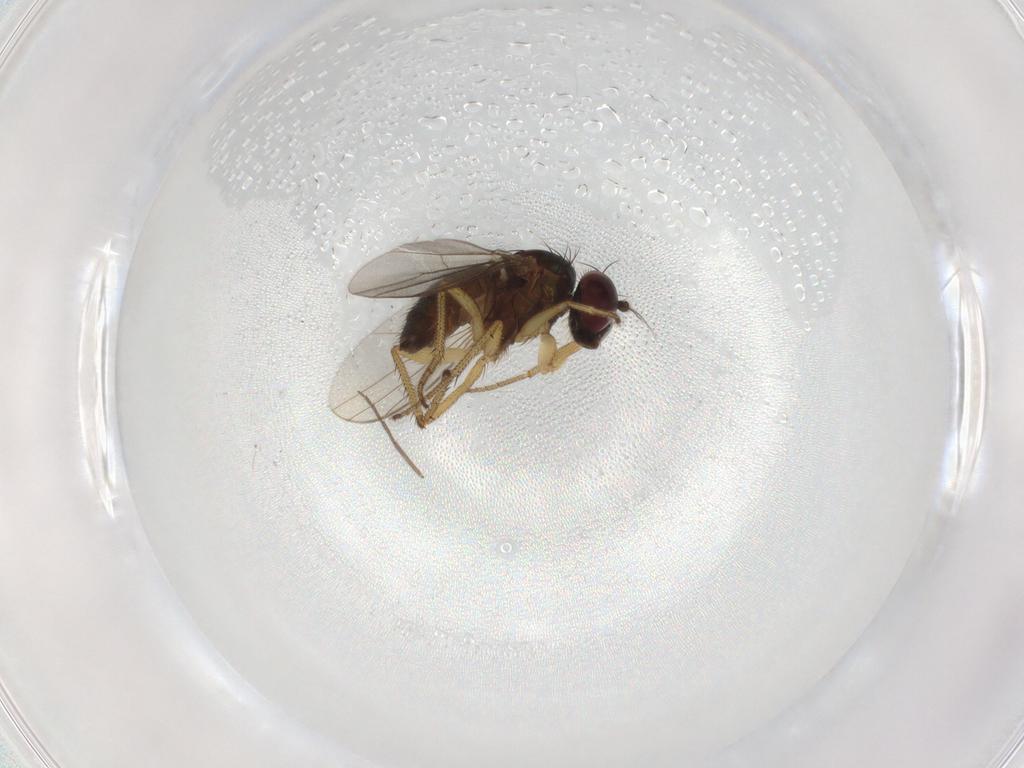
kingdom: Animalia
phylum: Arthropoda
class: Insecta
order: Diptera
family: Dolichopodidae
